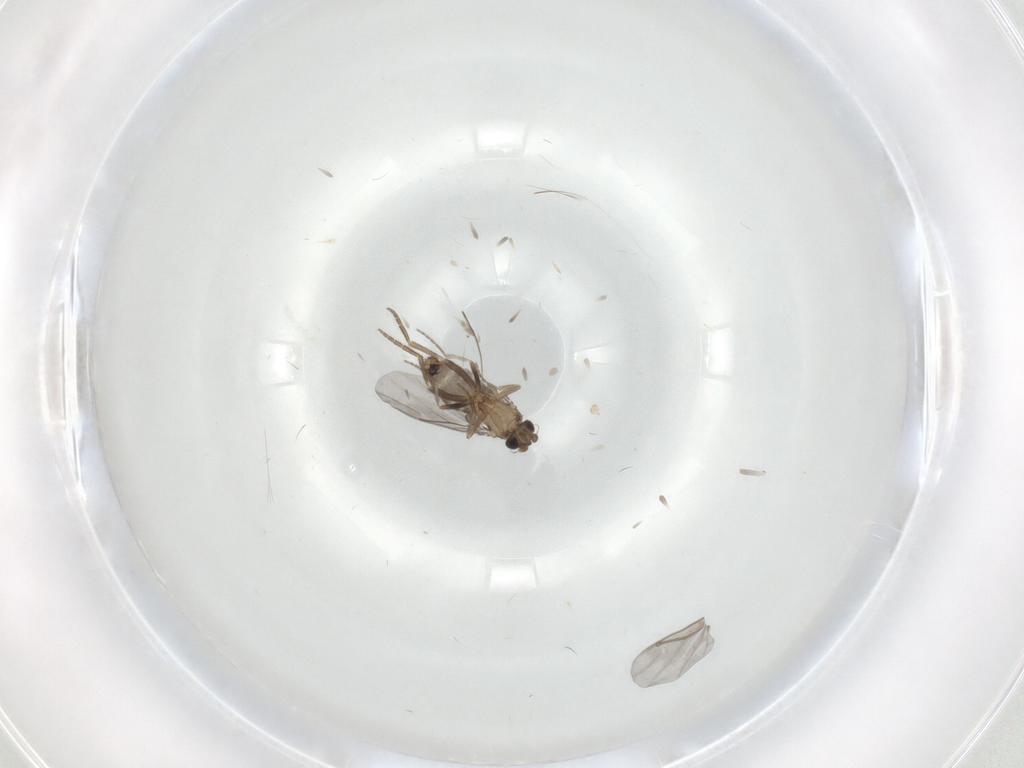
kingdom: Animalia
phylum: Arthropoda
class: Insecta
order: Diptera
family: Phoridae
